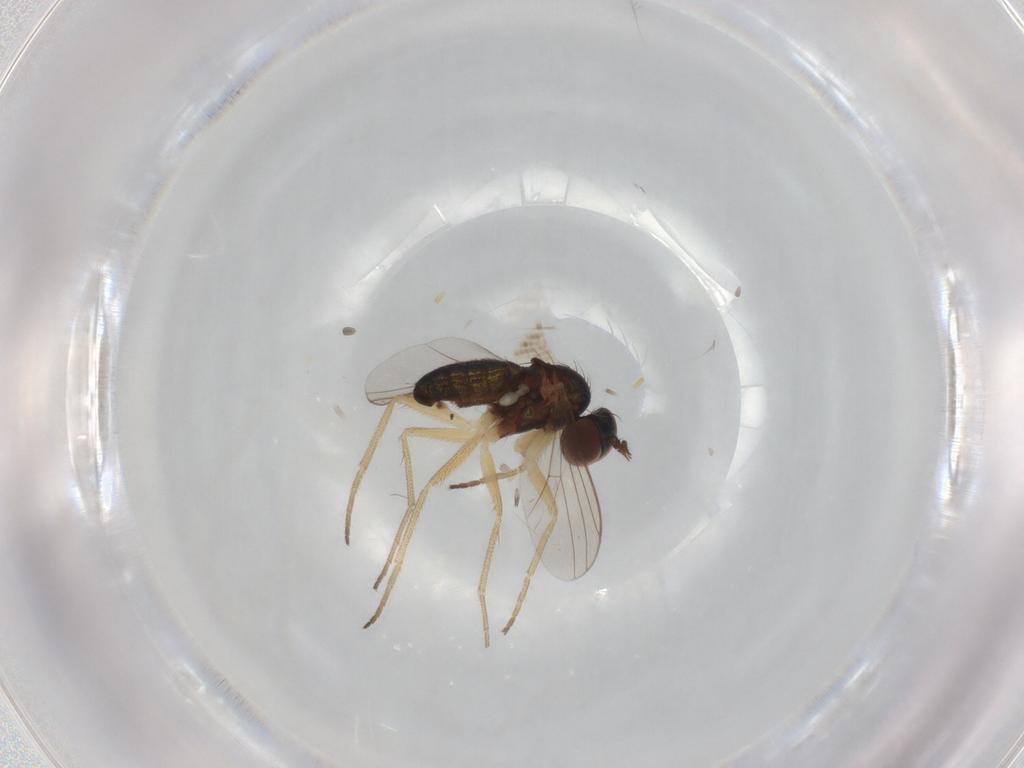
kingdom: Animalia
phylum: Arthropoda
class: Insecta
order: Diptera
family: Dolichopodidae
